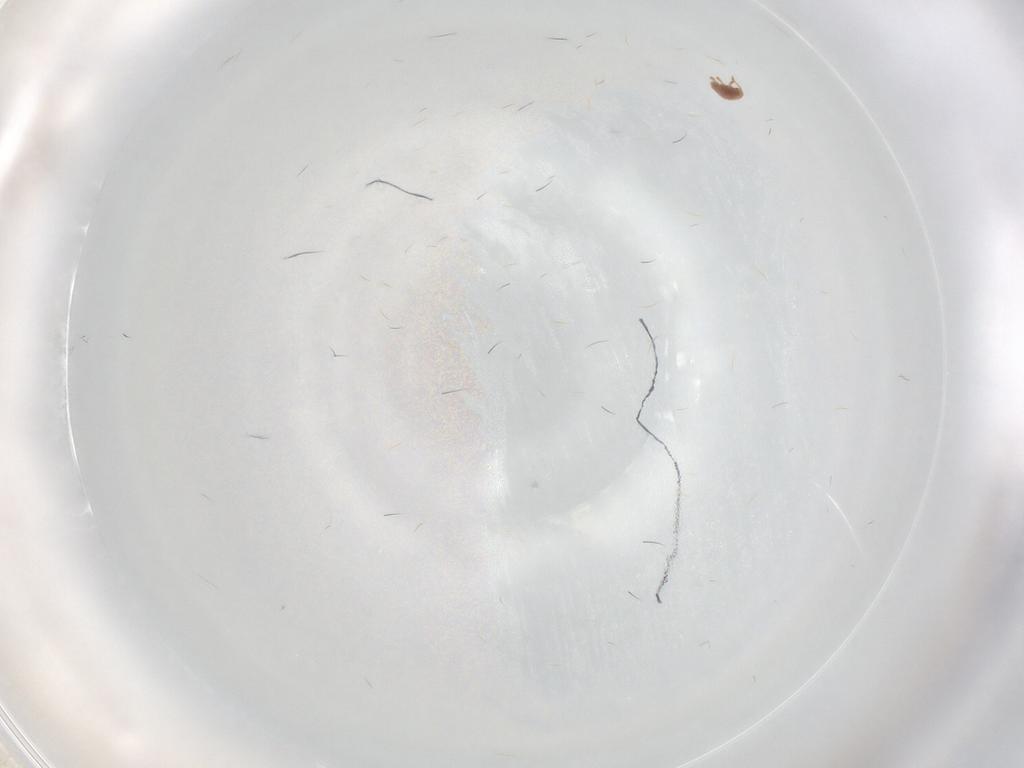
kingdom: Animalia
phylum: Arthropoda
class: Arachnida
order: Araneae
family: Lycosidae
